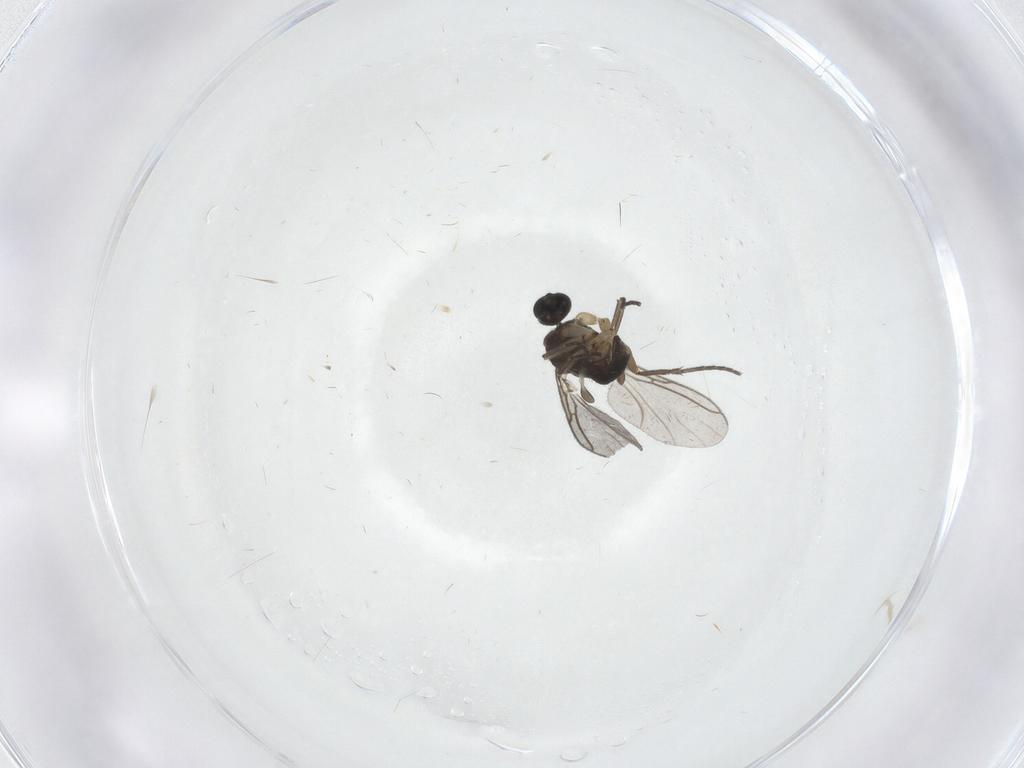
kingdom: Animalia
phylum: Arthropoda
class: Insecta
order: Diptera
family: Sciaridae
